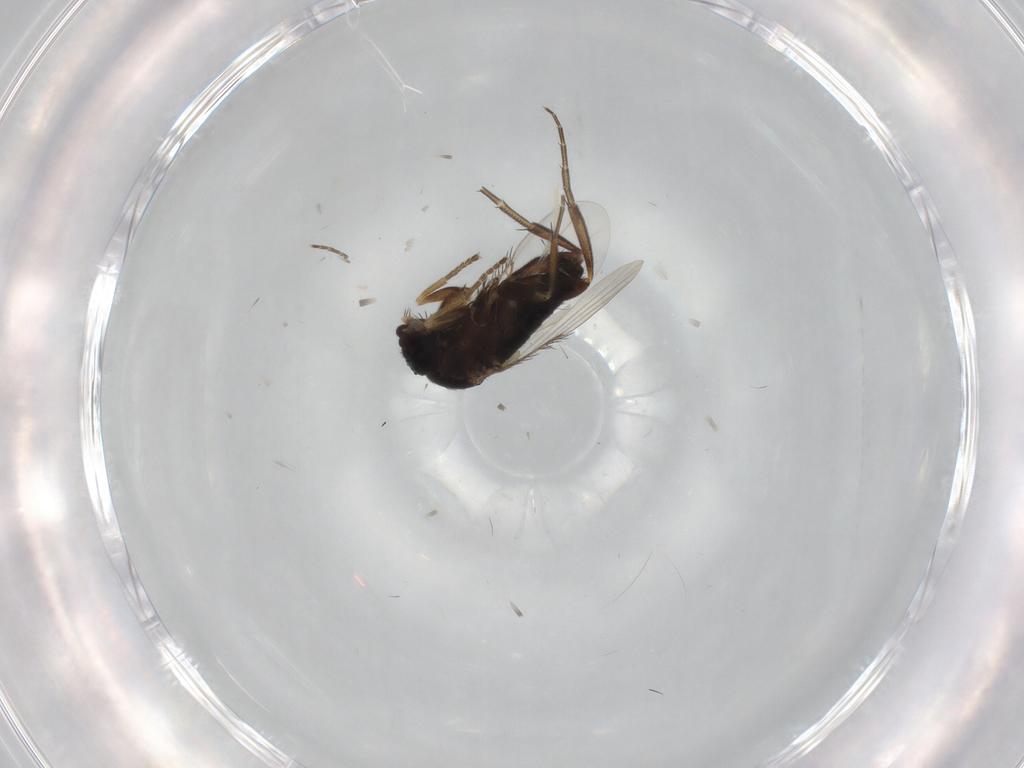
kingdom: Animalia
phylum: Arthropoda
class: Insecta
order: Diptera
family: Phoridae
